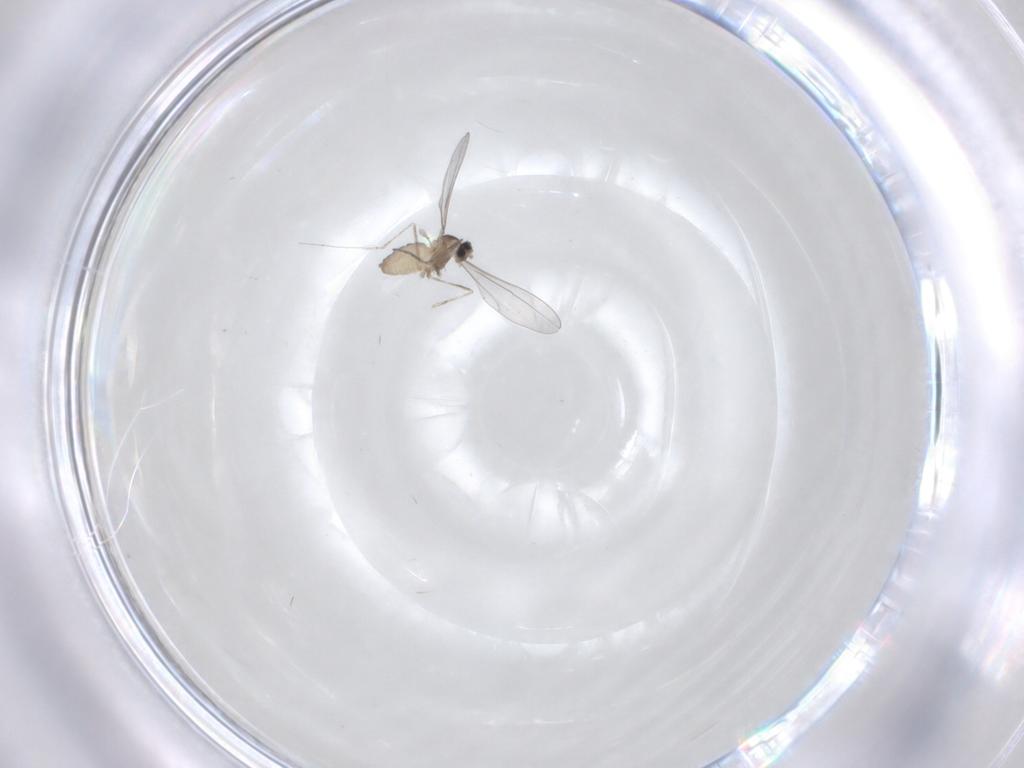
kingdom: Animalia
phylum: Arthropoda
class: Insecta
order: Diptera
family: Cecidomyiidae
